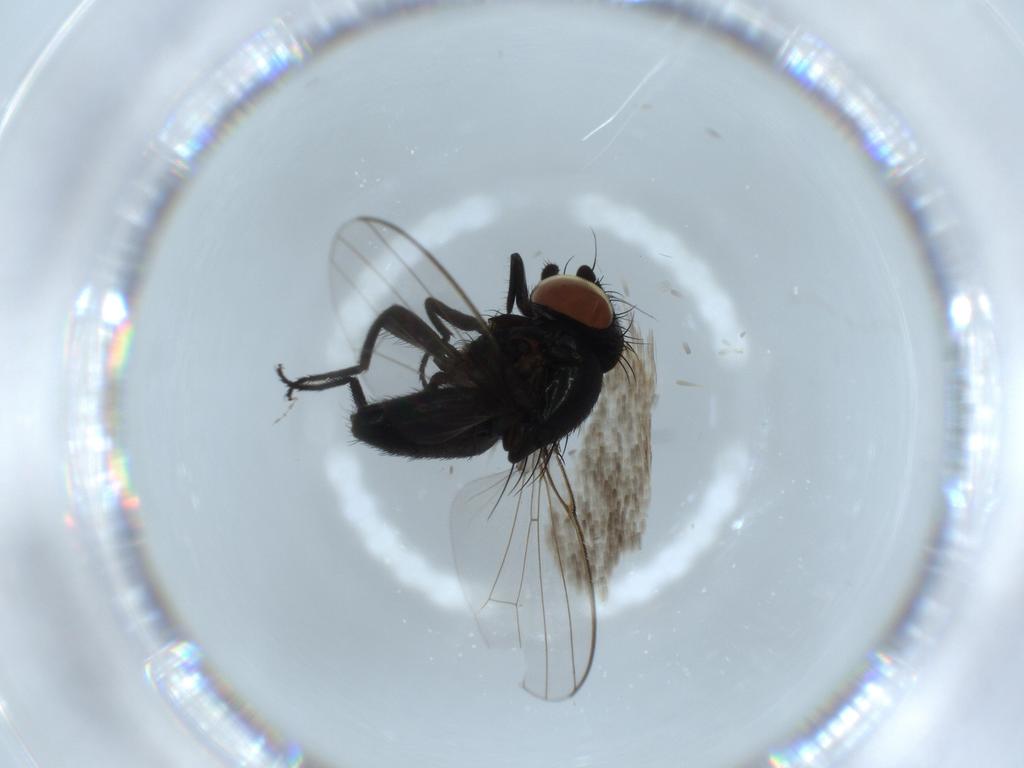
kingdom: Animalia
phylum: Arthropoda
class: Insecta
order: Diptera
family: Milichiidae
